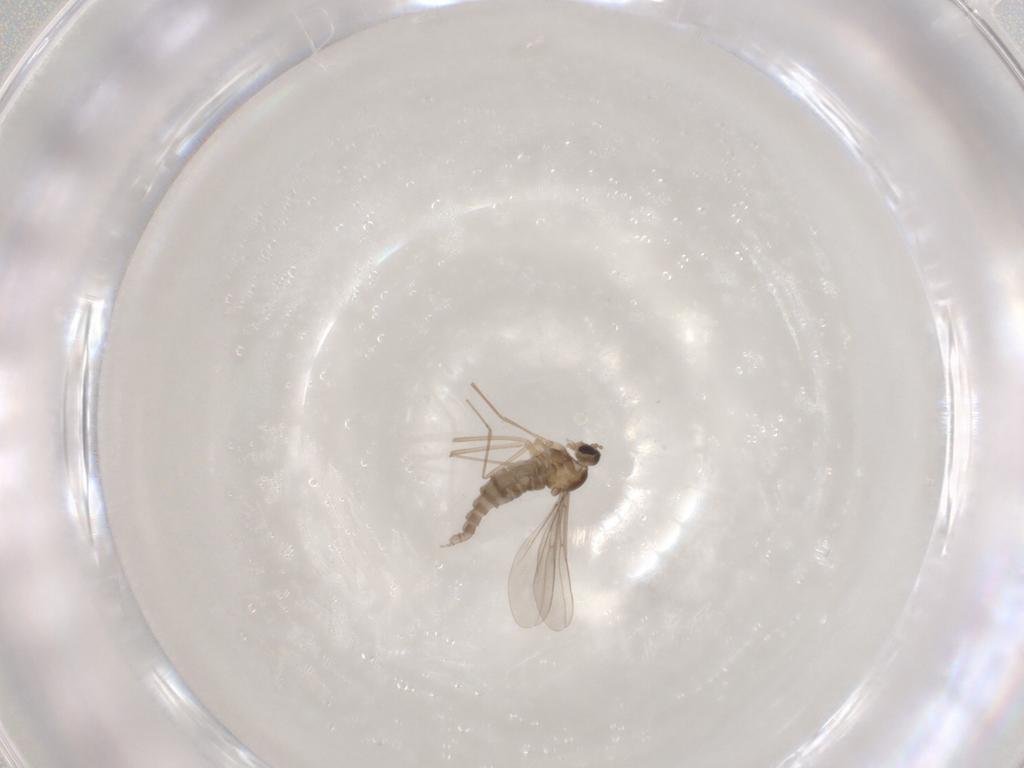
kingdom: Animalia
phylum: Arthropoda
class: Insecta
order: Diptera
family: Cecidomyiidae
